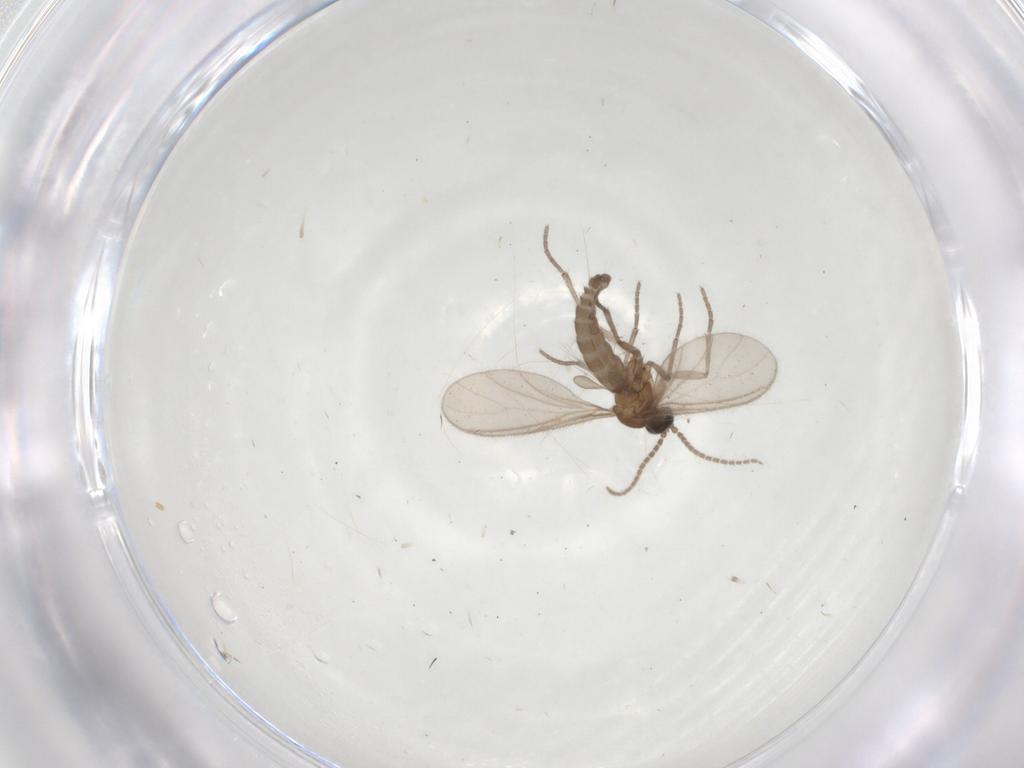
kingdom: Animalia
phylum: Arthropoda
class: Insecta
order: Diptera
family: Sciaridae
